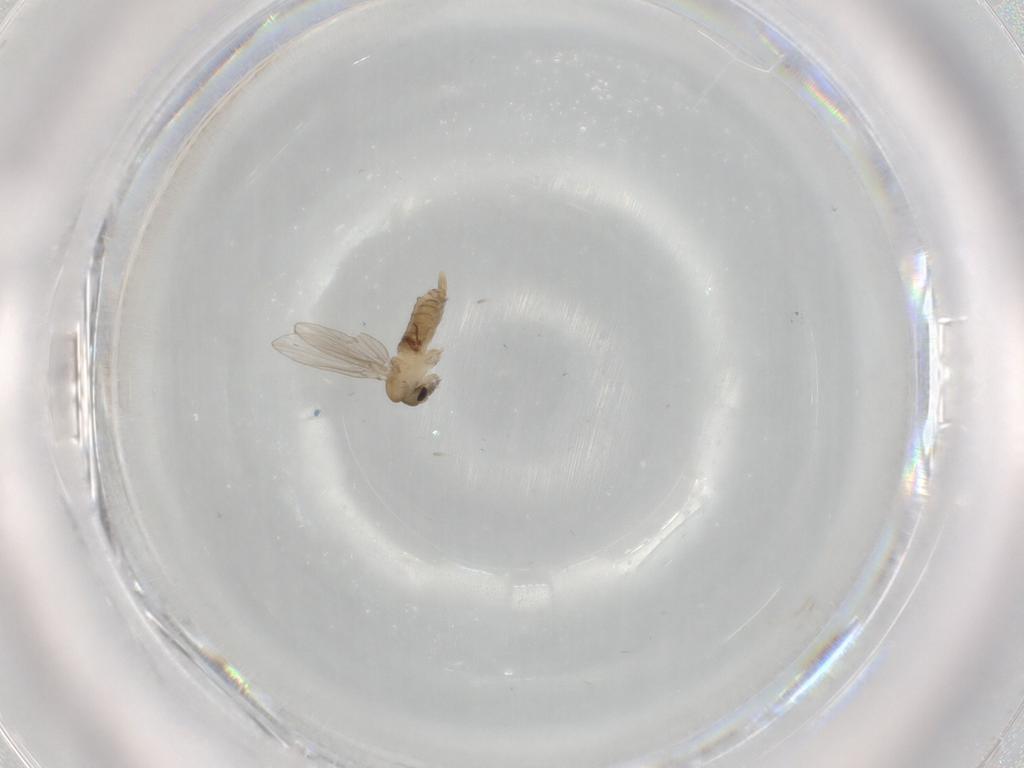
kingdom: Animalia
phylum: Arthropoda
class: Insecta
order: Diptera
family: Psychodidae
